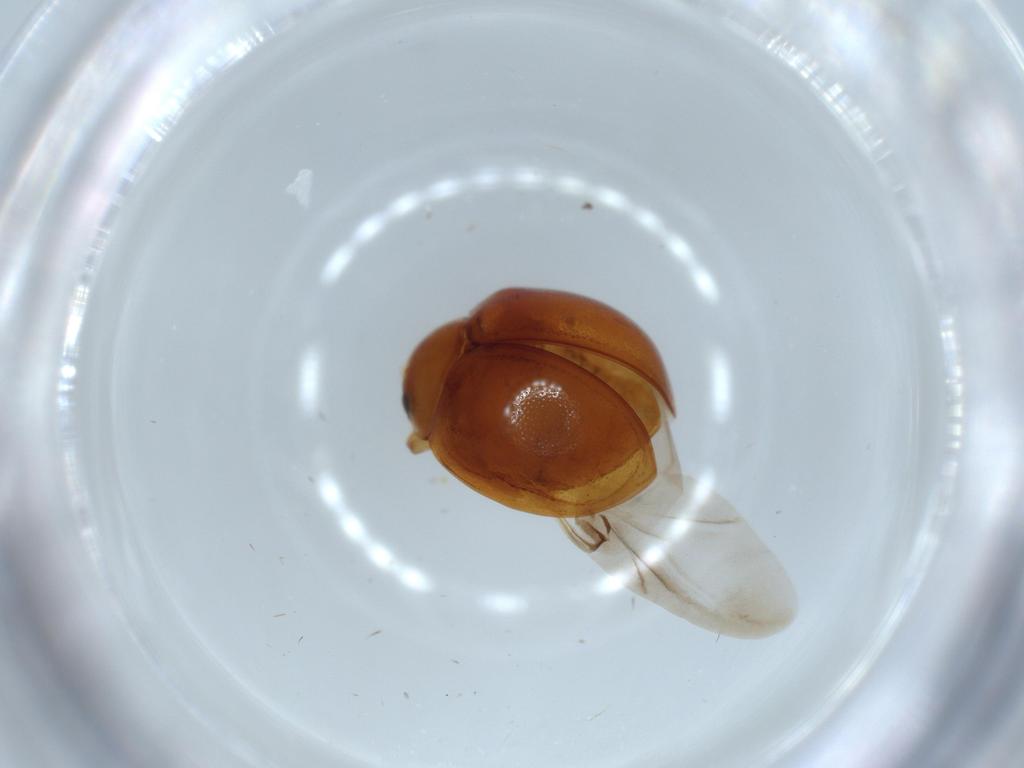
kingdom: Animalia
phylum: Arthropoda
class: Insecta
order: Coleoptera
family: Coccinellidae
